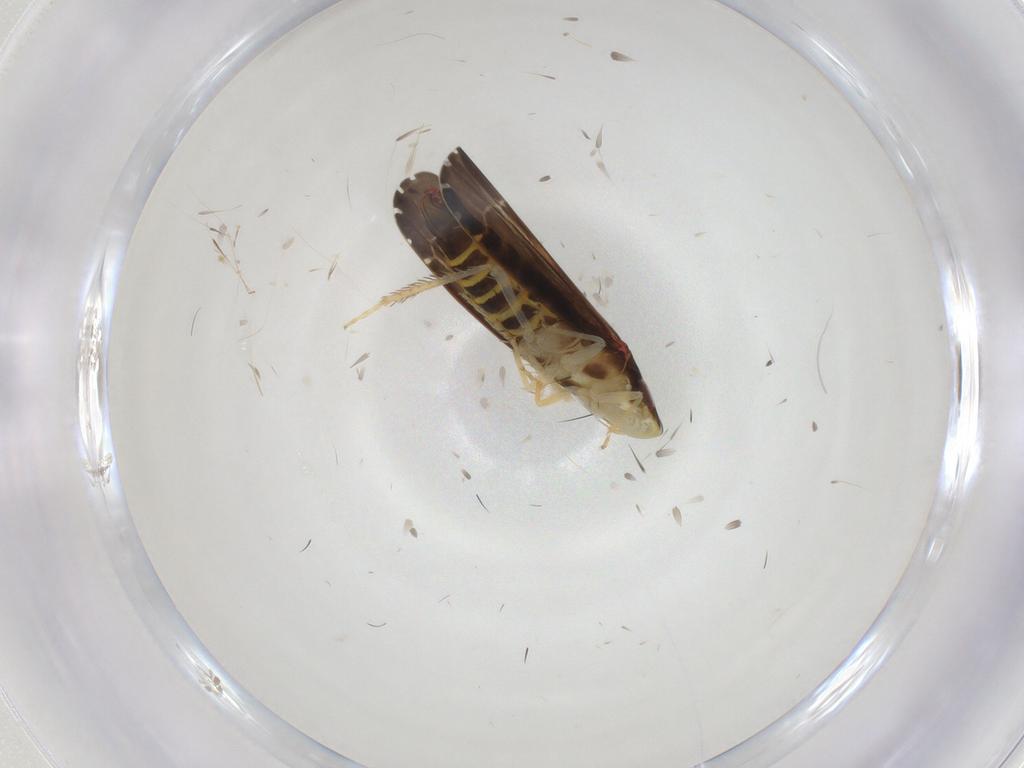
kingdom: Animalia
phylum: Arthropoda
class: Insecta
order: Hemiptera
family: Cicadellidae
